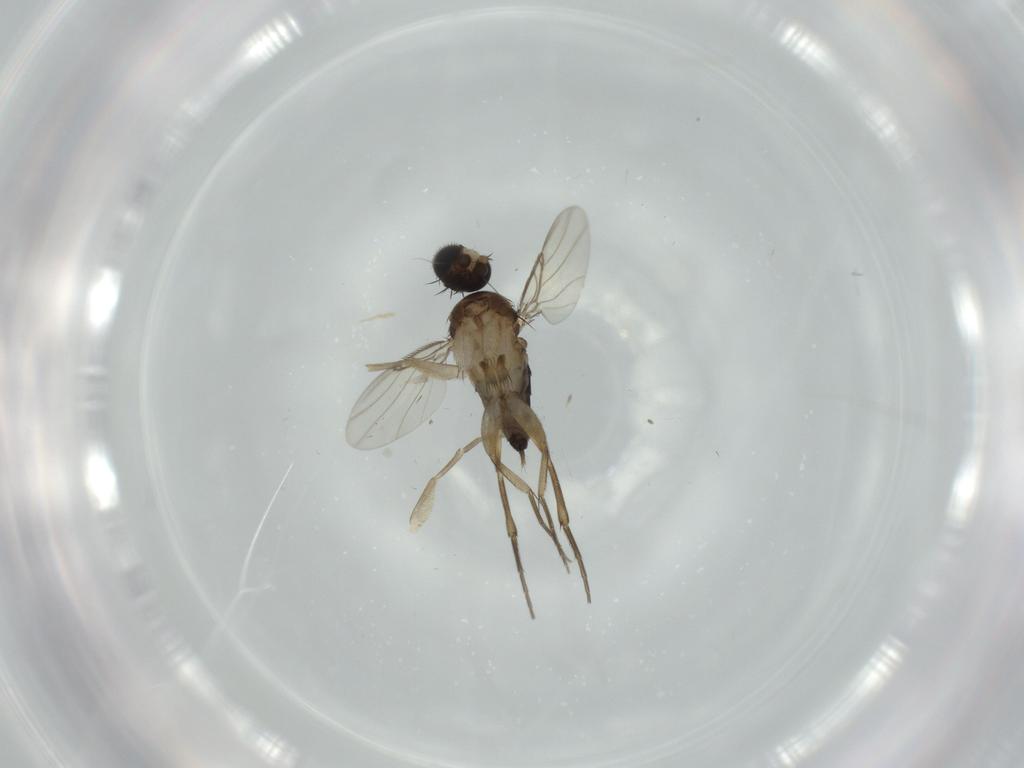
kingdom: Animalia
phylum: Arthropoda
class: Insecta
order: Diptera
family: Phoridae
